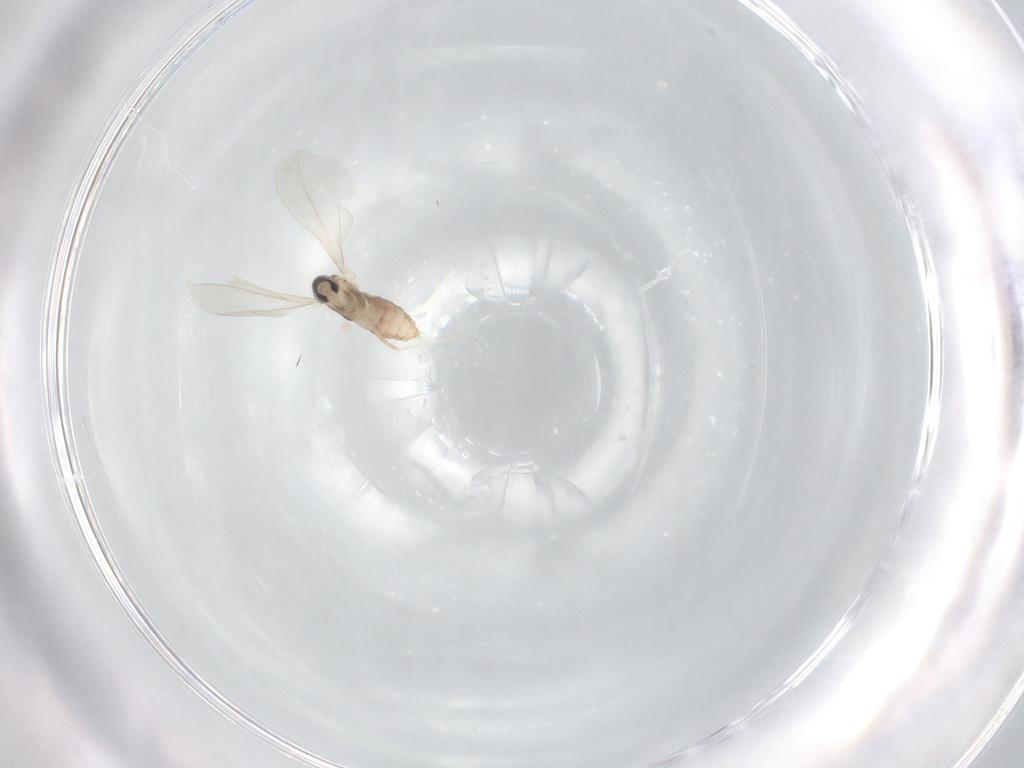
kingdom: Animalia
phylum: Arthropoda
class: Insecta
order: Diptera
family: Cecidomyiidae
